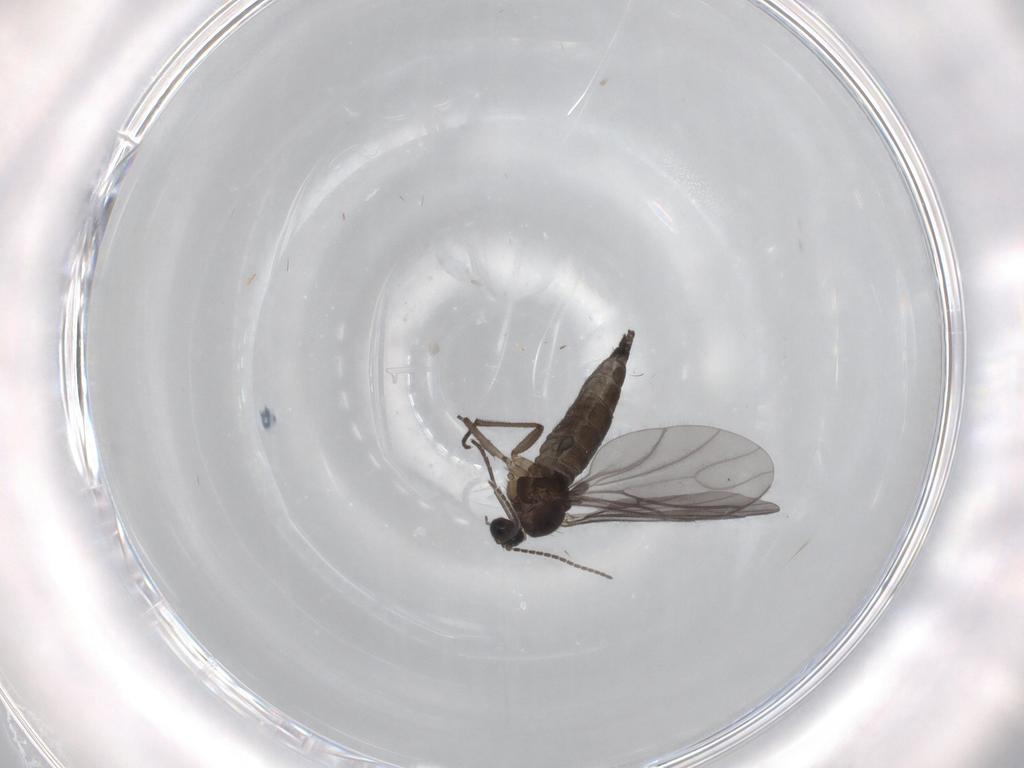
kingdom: Animalia
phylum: Arthropoda
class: Insecta
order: Diptera
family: Sciaridae
